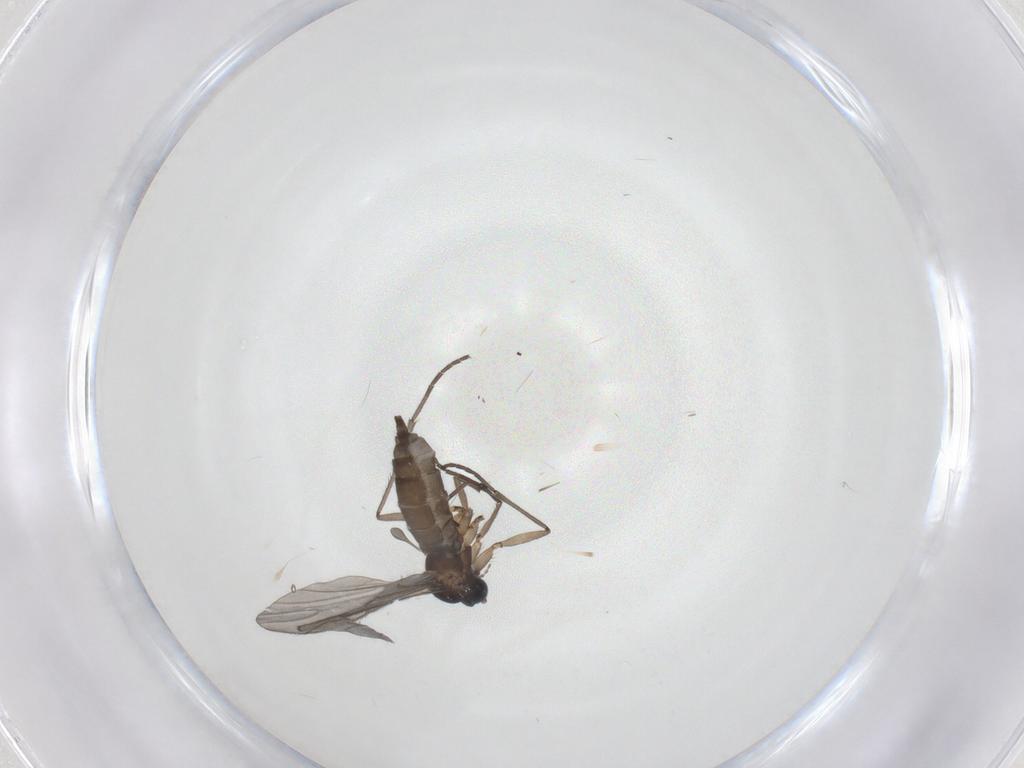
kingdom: Animalia
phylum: Arthropoda
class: Insecta
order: Diptera
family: Sciaridae
